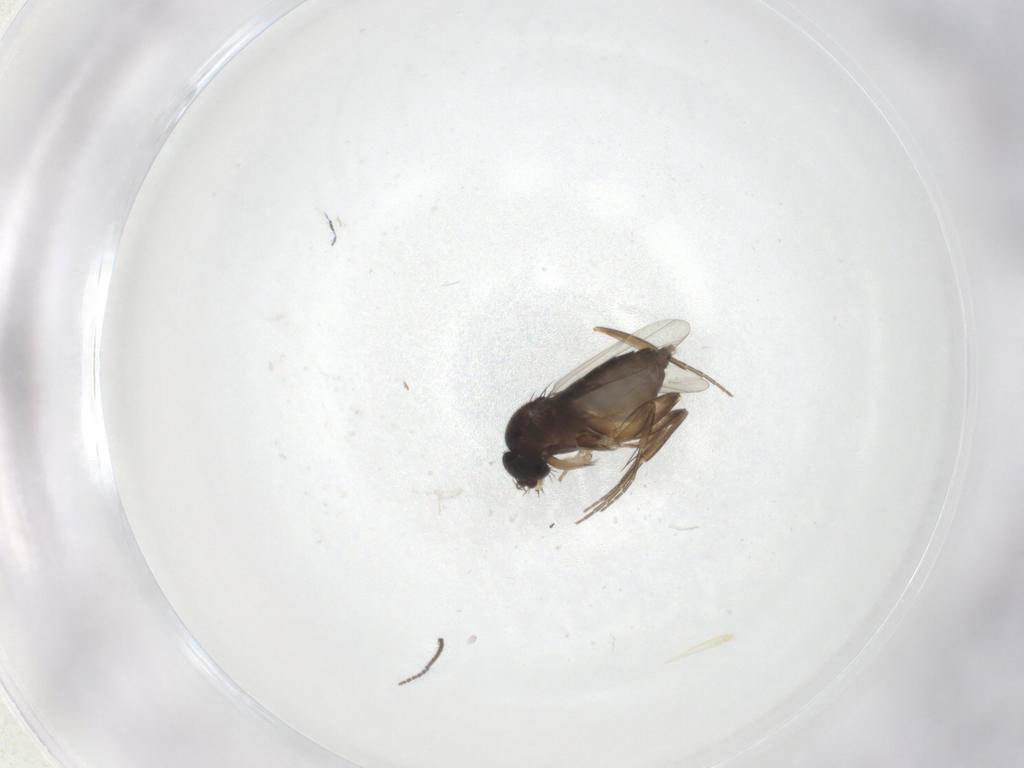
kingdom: Animalia
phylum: Arthropoda
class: Insecta
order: Diptera
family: Phoridae
